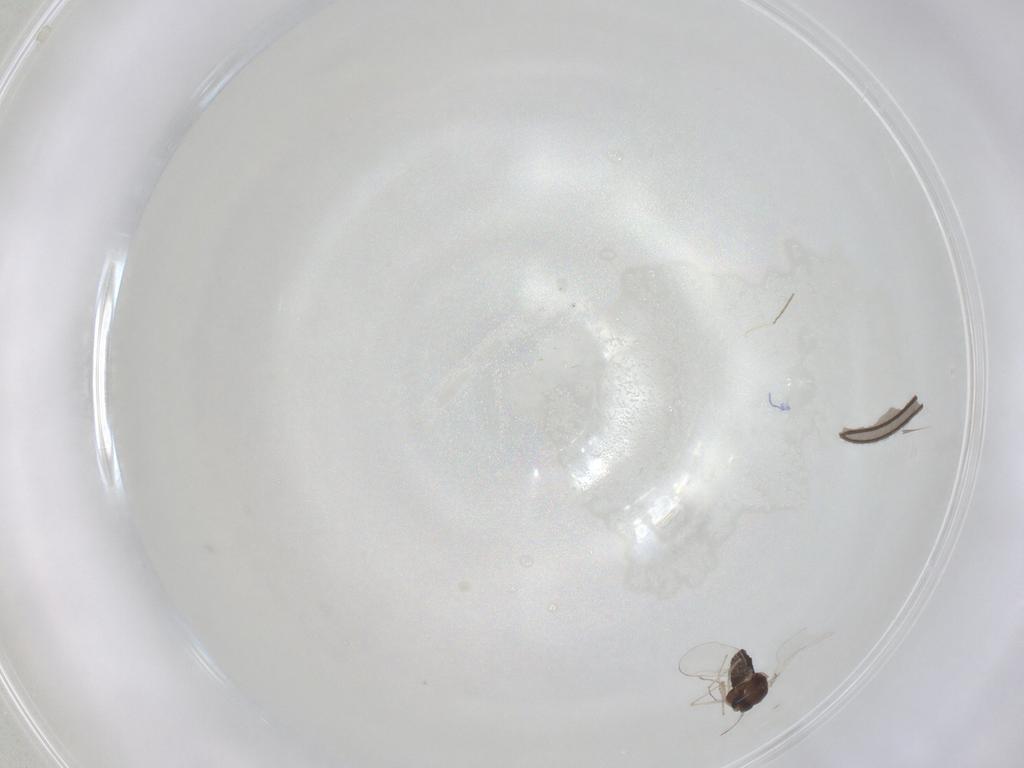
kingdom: Animalia
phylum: Arthropoda
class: Insecta
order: Diptera
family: Chironomidae
